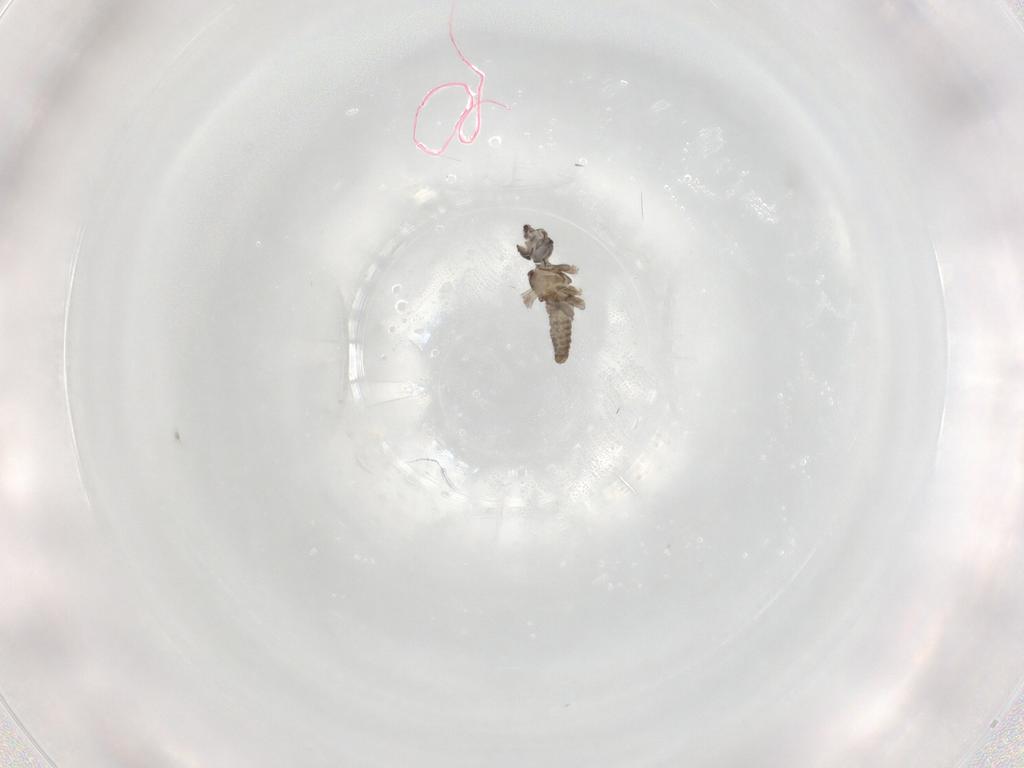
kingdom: Animalia
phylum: Arthropoda
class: Insecta
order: Diptera
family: Cecidomyiidae
